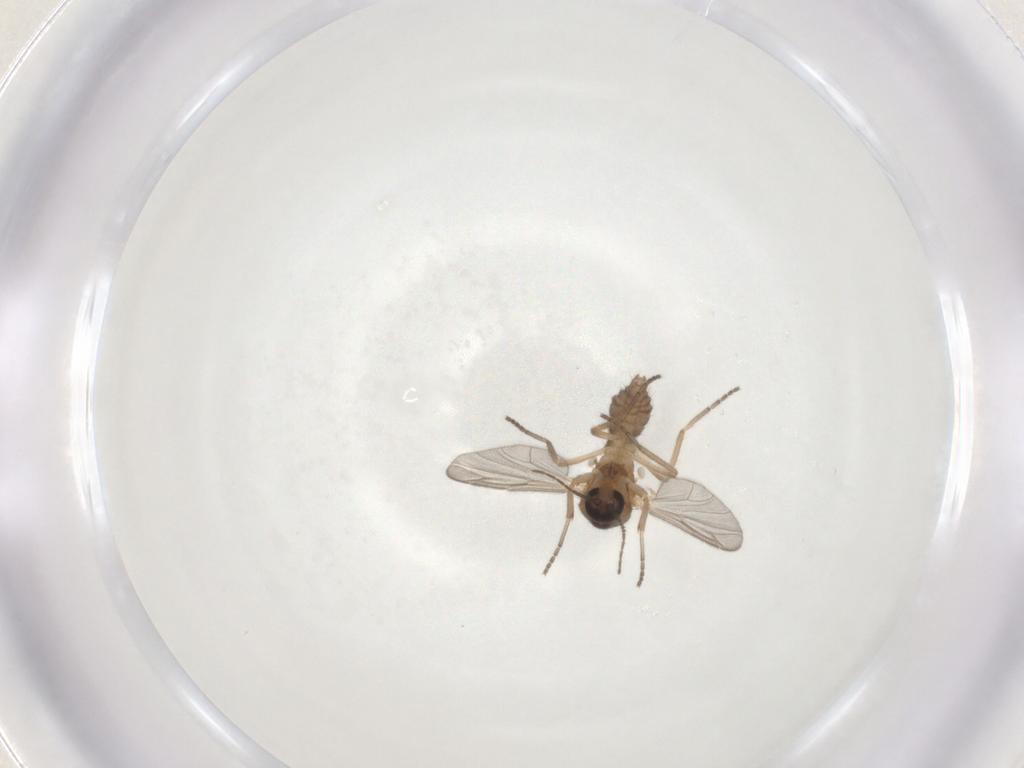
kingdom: Animalia
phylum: Arthropoda
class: Insecta
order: Diptera
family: Ceratopogonidae
